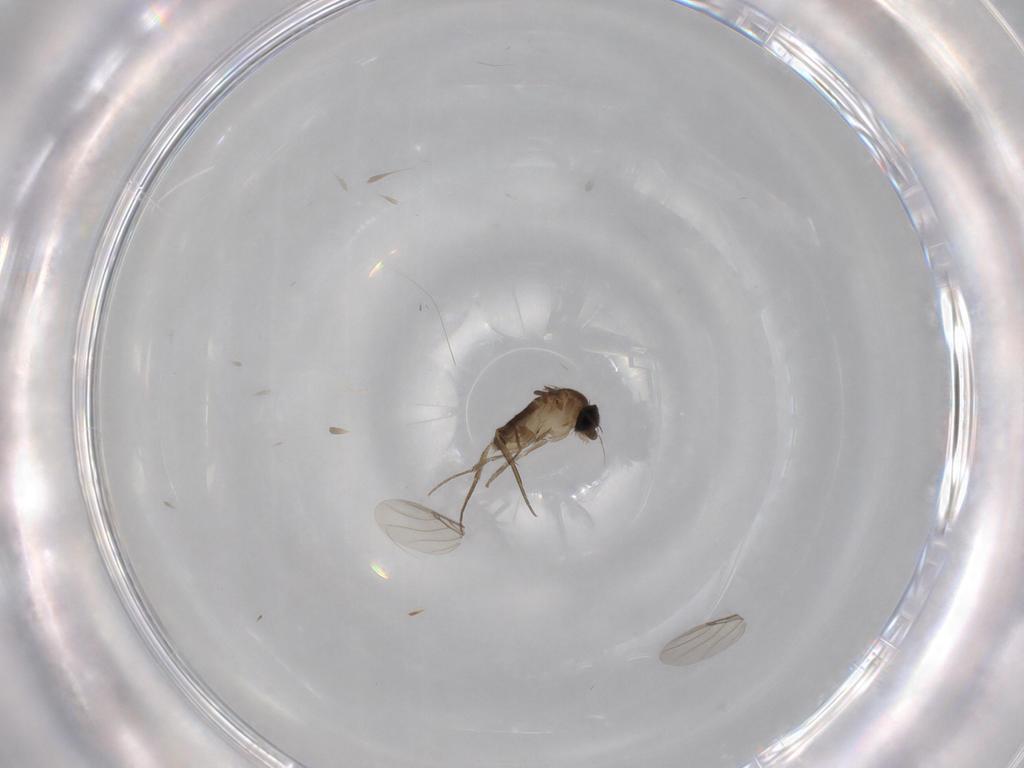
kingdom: Animalia
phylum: Arthropoda
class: Insecta
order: Diptera
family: Phoridae
